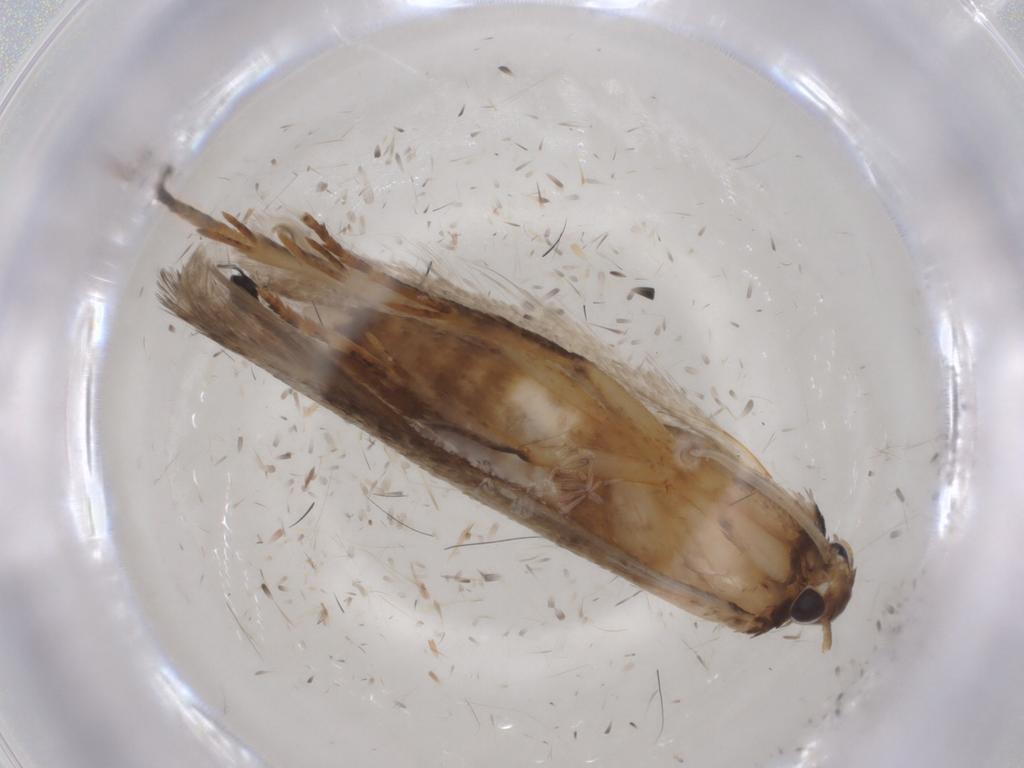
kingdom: Animalia
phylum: Arthropoda
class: Insecta
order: Lepidoptera
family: Gelechiidae
